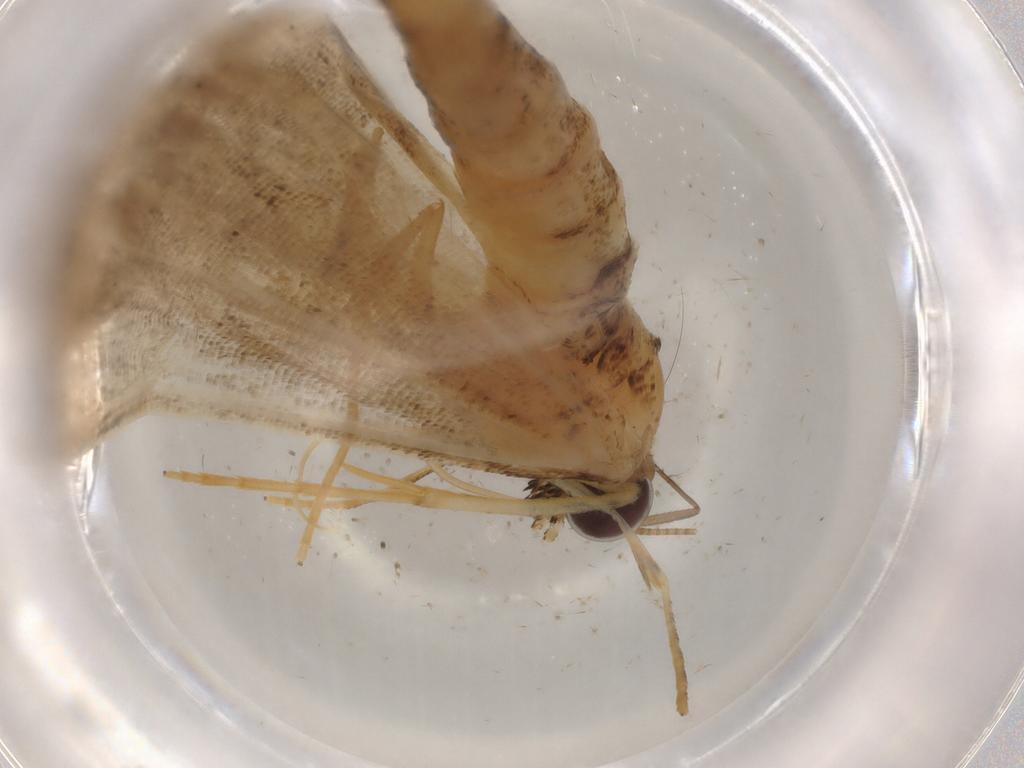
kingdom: Animalia
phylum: Arthropoda
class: Insecta
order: Lepidoptera
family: Geometridae
